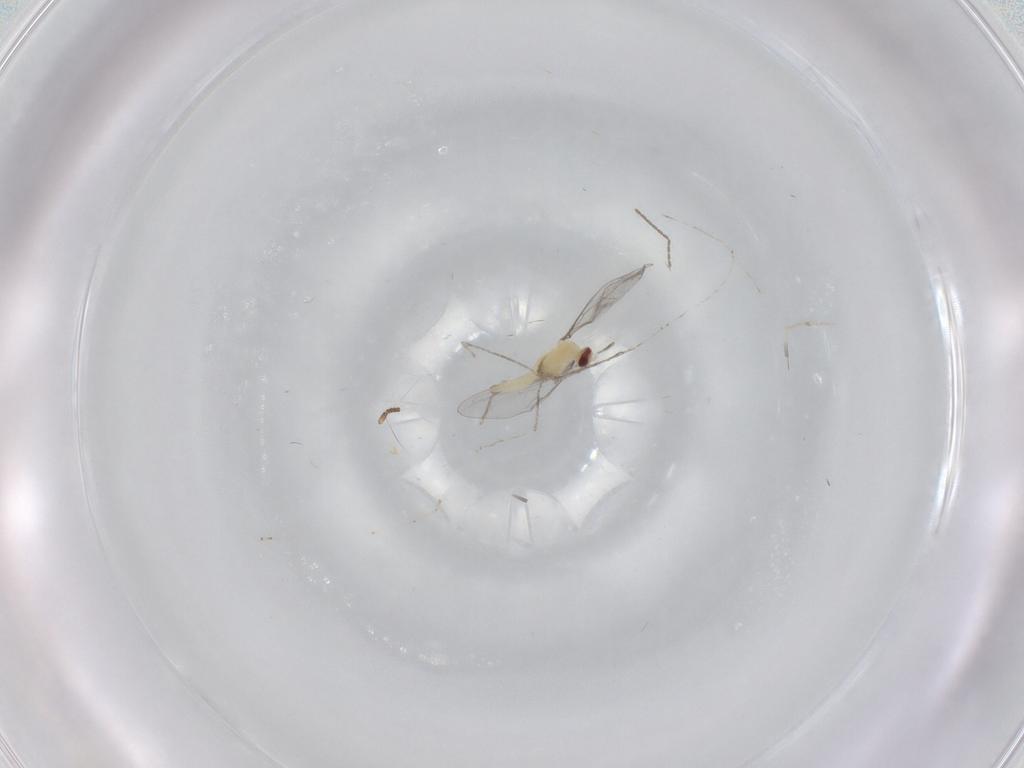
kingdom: Animalia
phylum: Arthropoda
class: Insecta
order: Diptera
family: Cecidomyiidae
